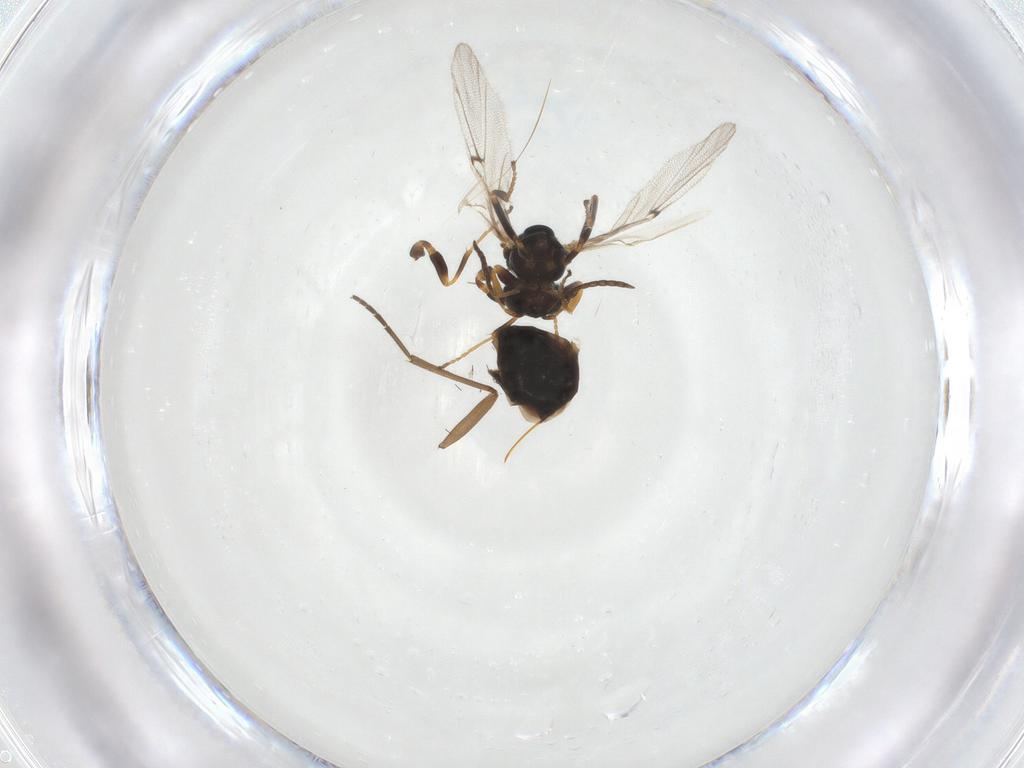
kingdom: Animalia
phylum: Arthropoda
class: Insecta
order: Hymenoptera
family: Cynipidae
